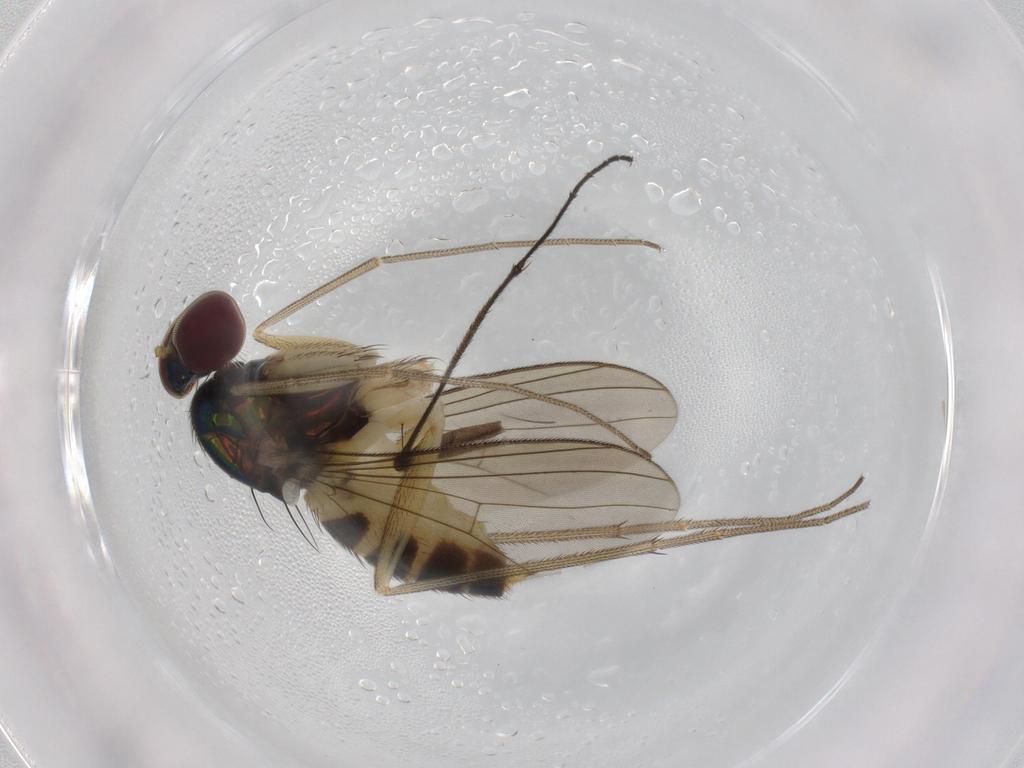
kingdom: Animalia
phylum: Arthropoda
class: Insecta
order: Diptera
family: Dolichopodidae
